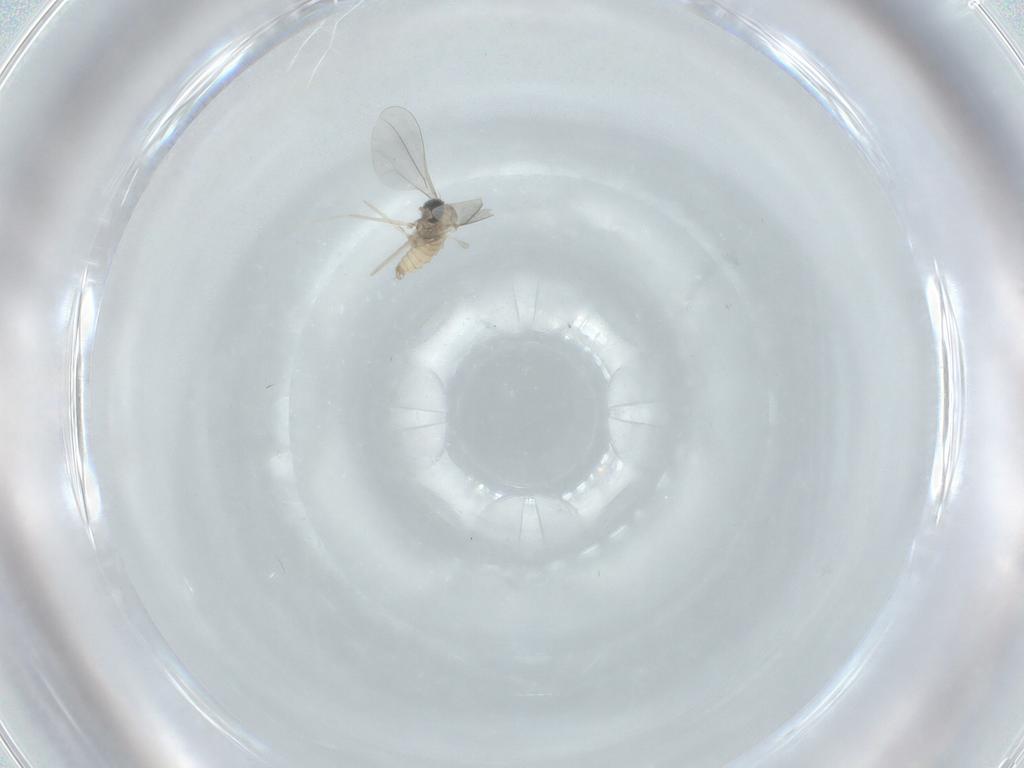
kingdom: Animalia
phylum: Arthropoda
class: Insecta
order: Diptera
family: Cecidomyiidae
